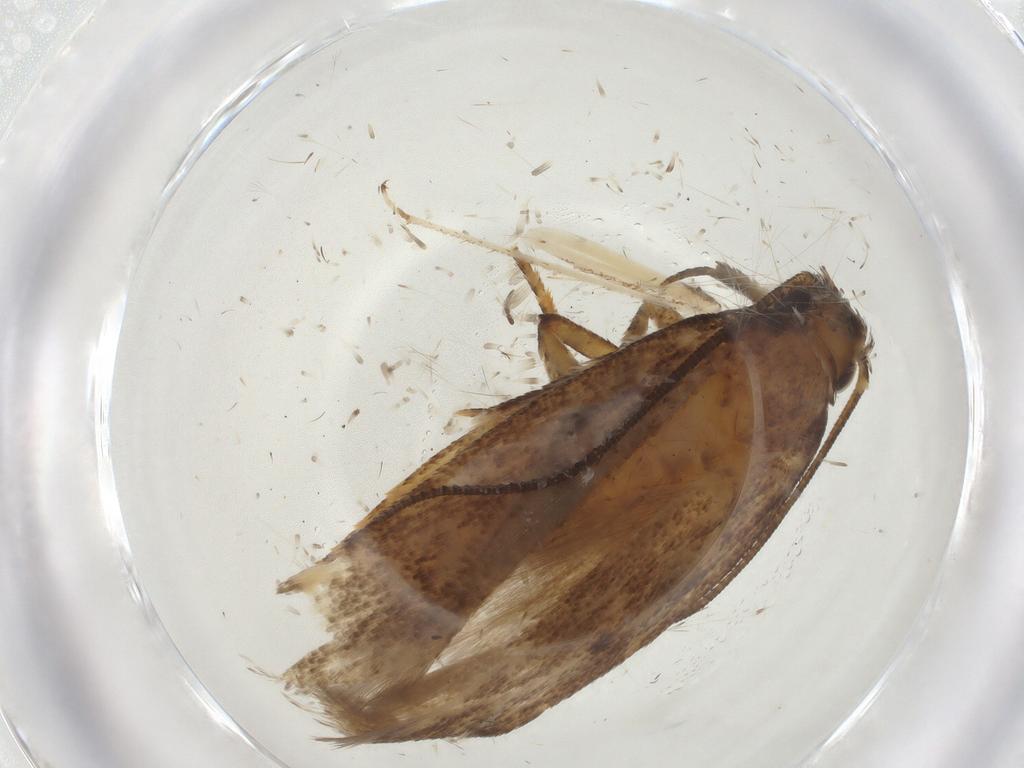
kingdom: Animalia
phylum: Arthropoda
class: Insecta
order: Lepidoptera
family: Gelechiidae
